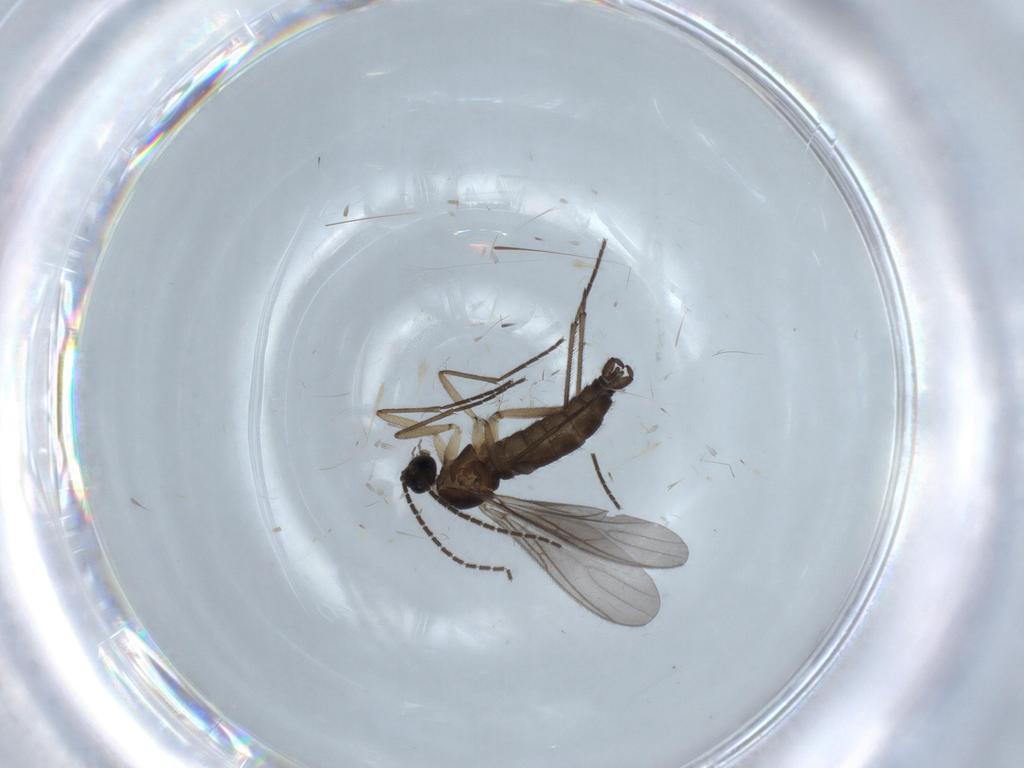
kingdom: Animalia
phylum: Arthropoda
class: Insecta
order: Diptera
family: Sciaridae
